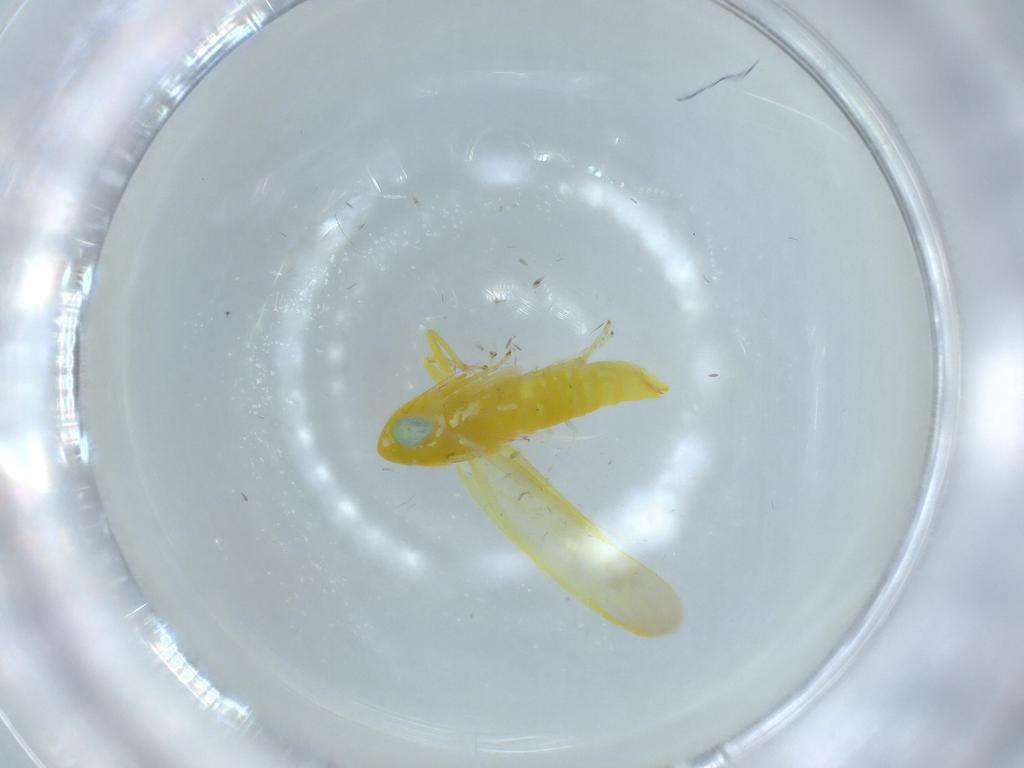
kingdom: Animalia
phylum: Arthropoda
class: Insecta
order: Hemiptera
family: Cicadellidae
